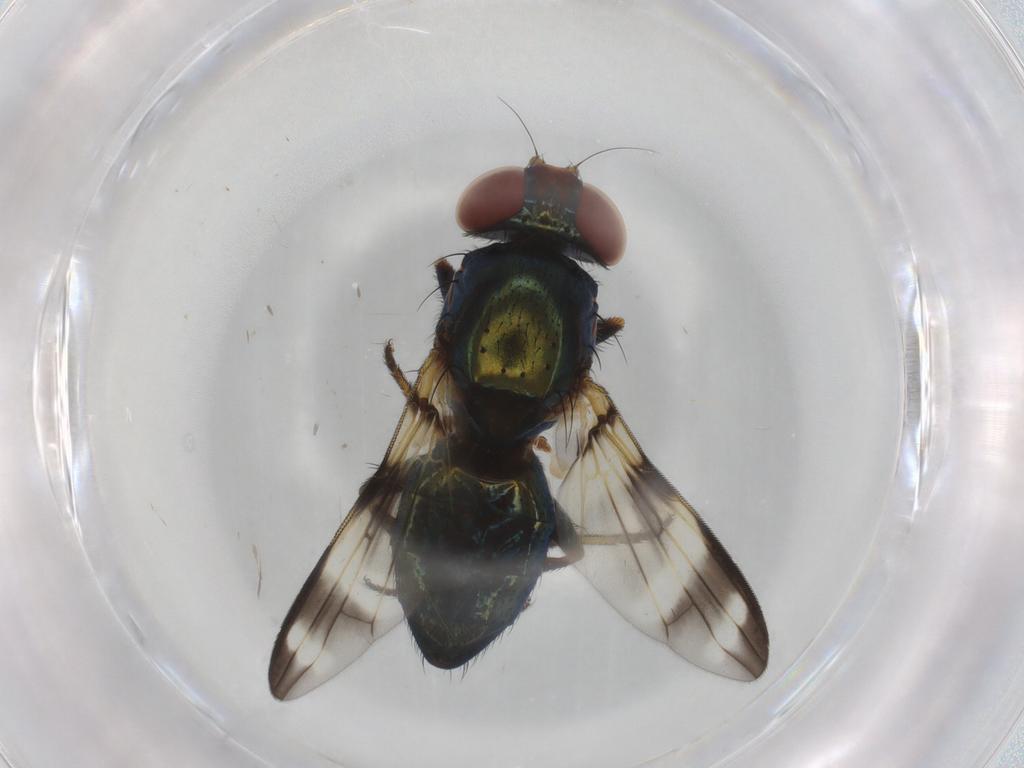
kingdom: Animalia
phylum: Arthropoda
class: Insecta
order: Diptera
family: Ulidiidae
